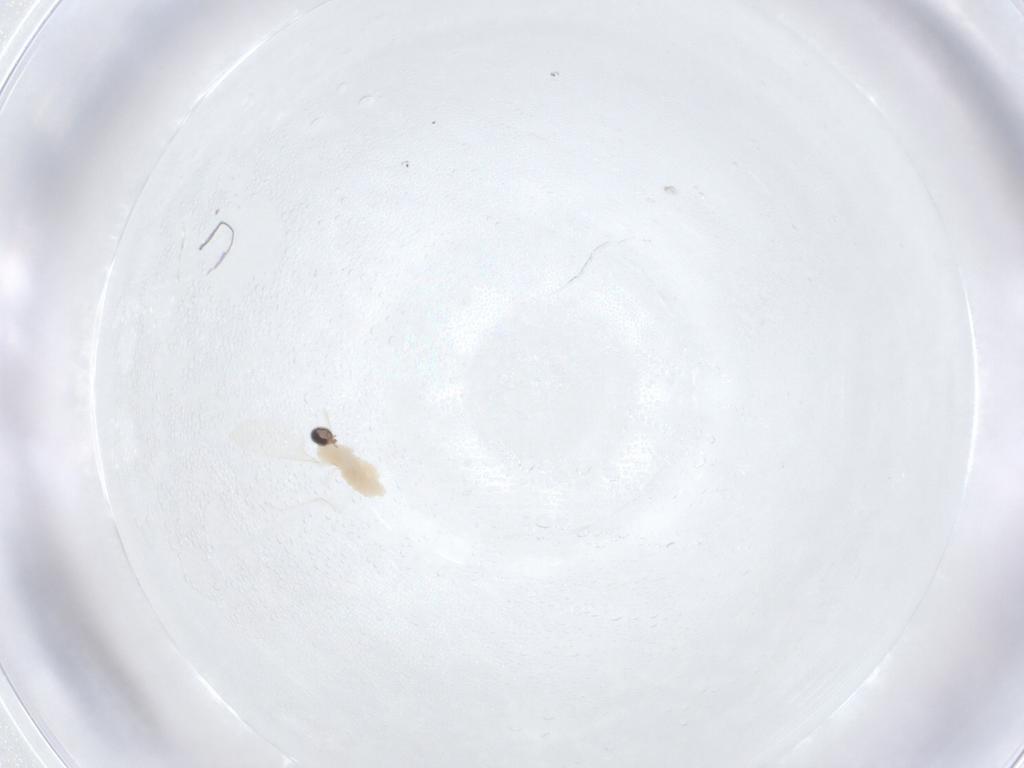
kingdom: Animalia
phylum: Arthropoda
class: Insecta
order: Diptera
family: Cecidomyiidae
